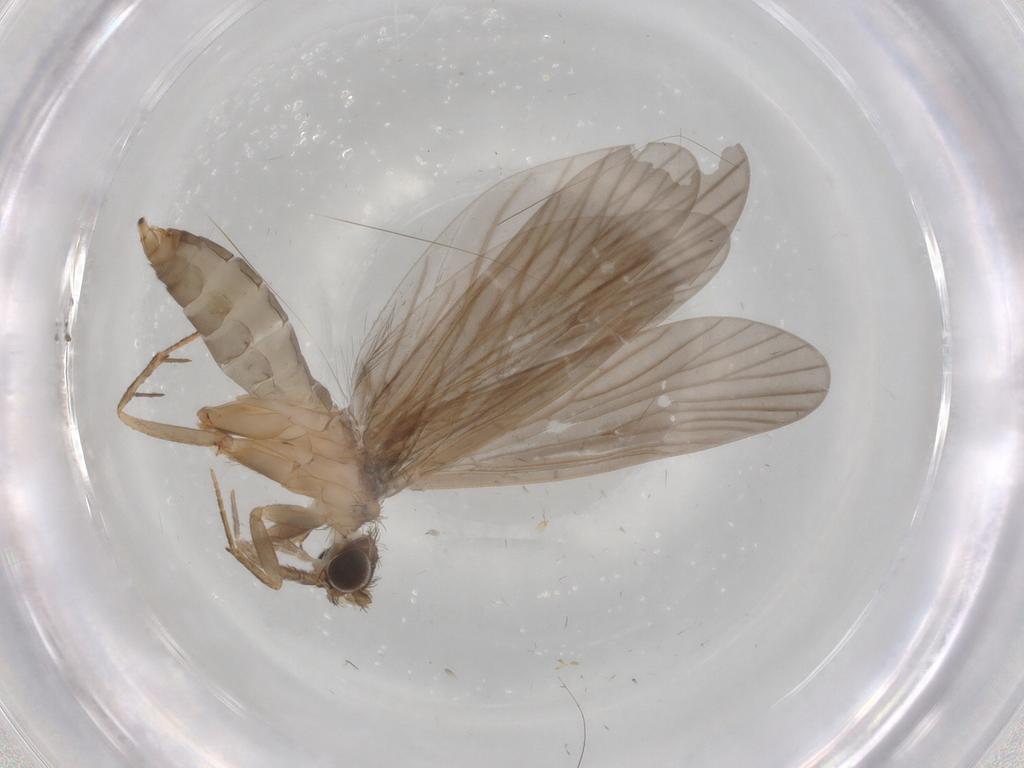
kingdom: Animalia
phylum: Arthropoda
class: Insecta
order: Trichoptera
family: Philopotamidae
